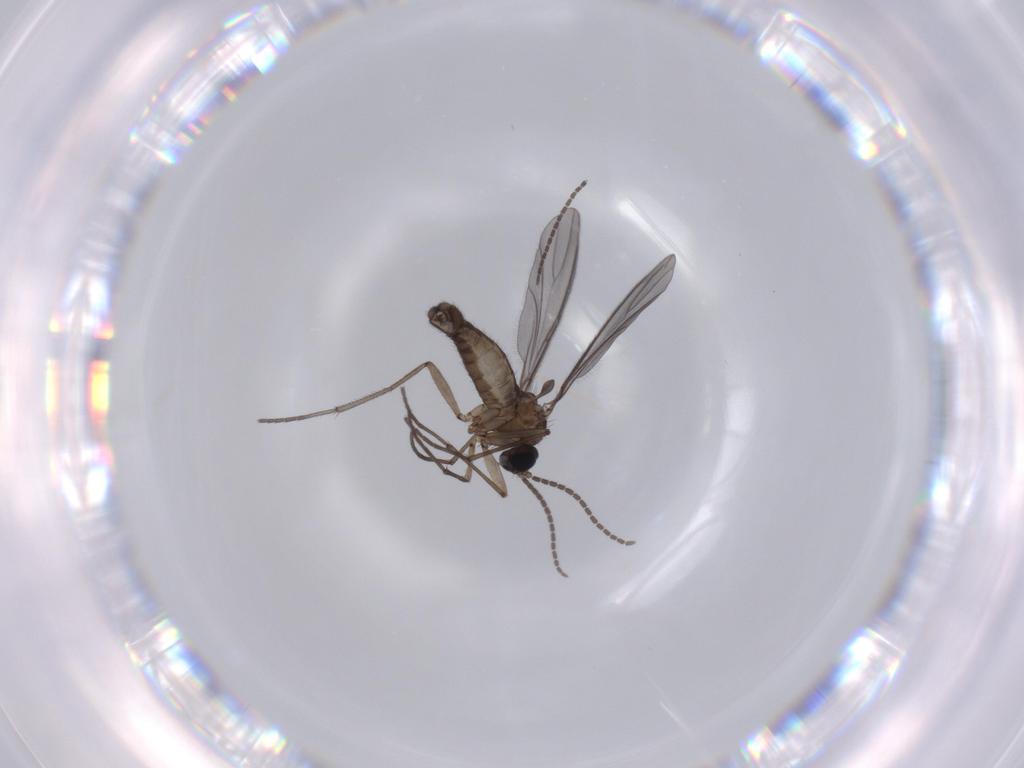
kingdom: Animalia
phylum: Arthropoda
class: Insecta
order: Diptera
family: Sciaridae
